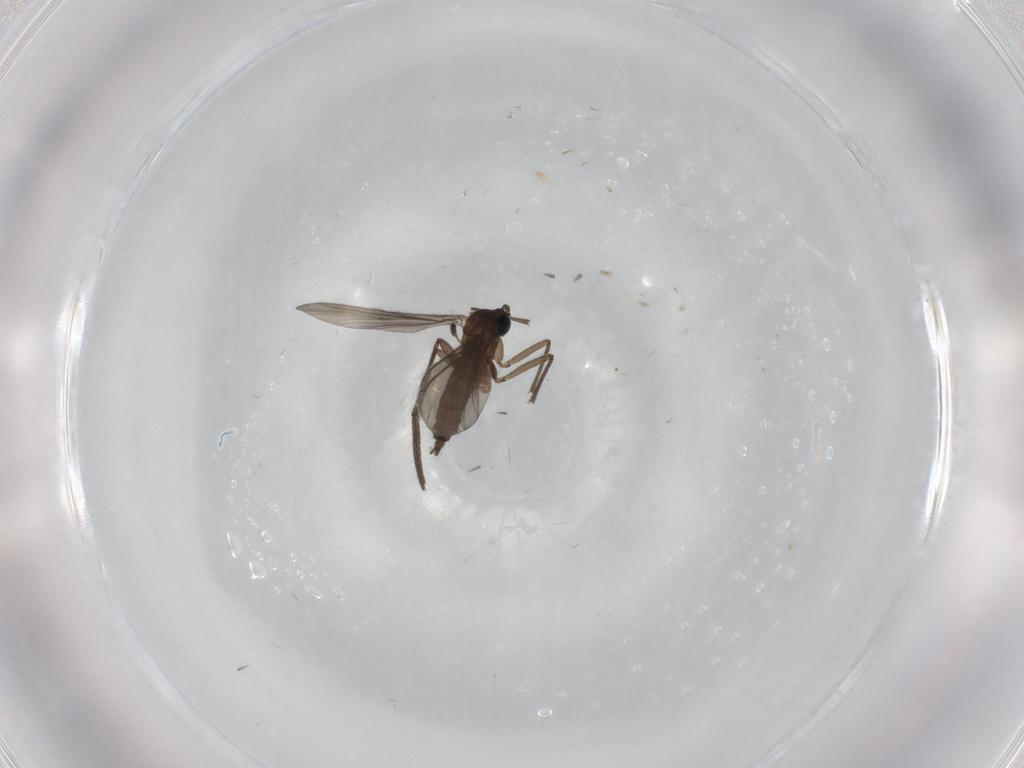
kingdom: Animalia
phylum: Arthropoda
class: Insecta
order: Diptera
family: Sciaridae
